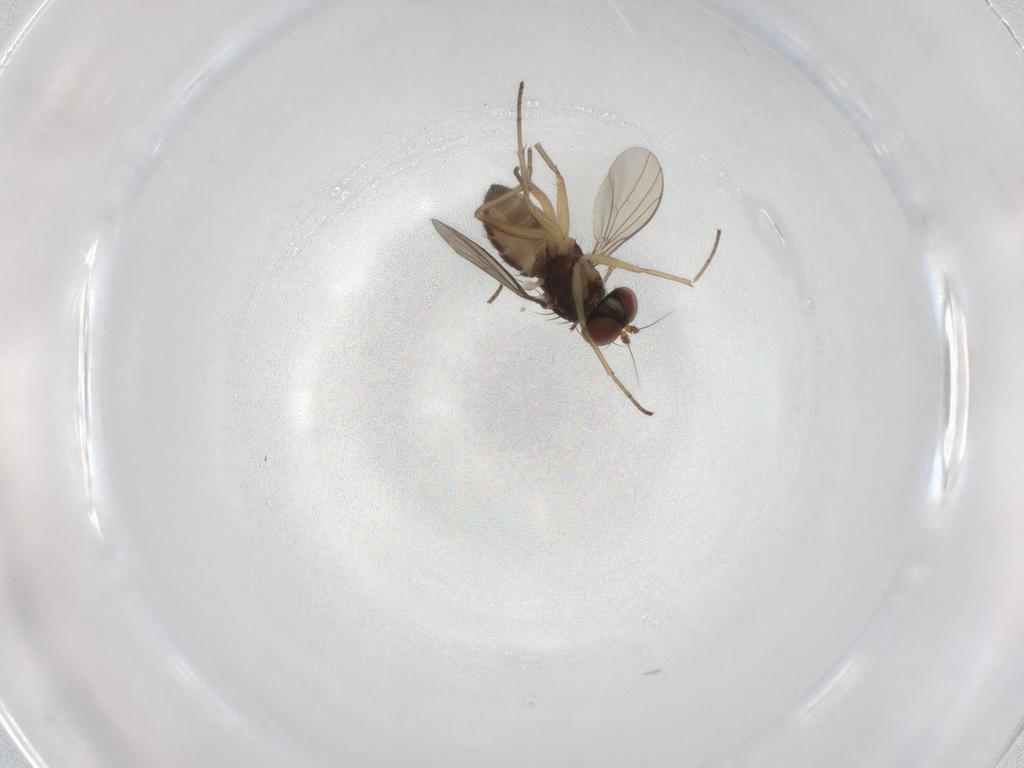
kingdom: Animalia
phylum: Arthropoda
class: Insecta
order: Diptera
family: Dolichopodidae
